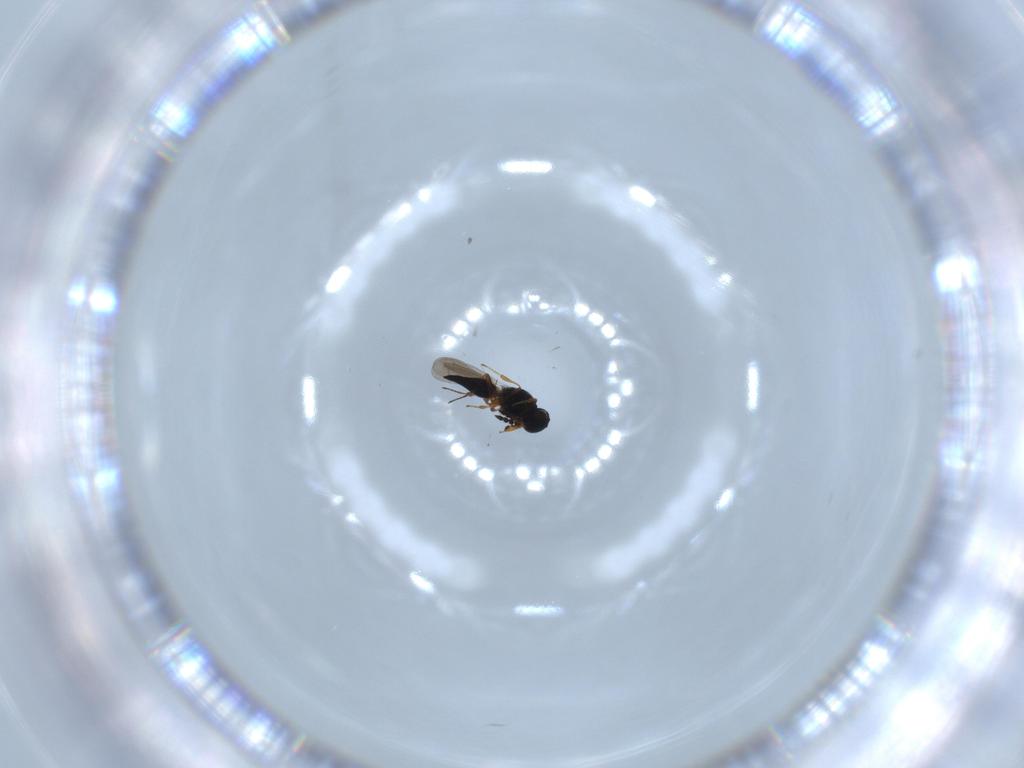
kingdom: Animalia
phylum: Arthropoda
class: Insecta
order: Hymenoptera
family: Platygastridae
